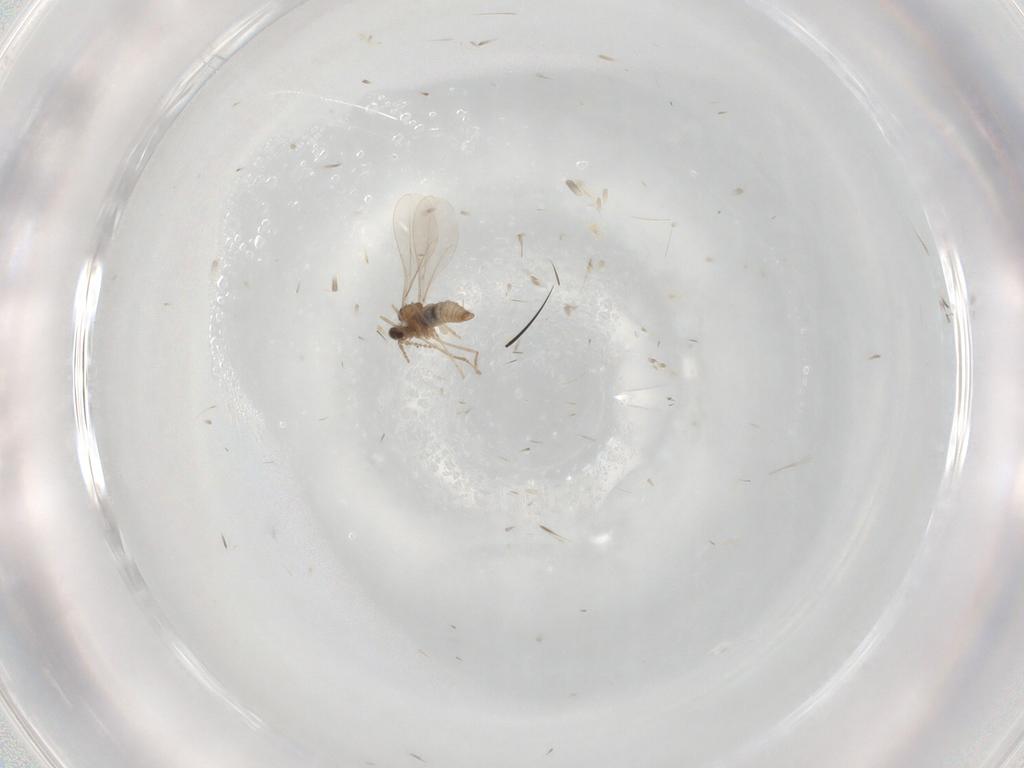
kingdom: Animalia
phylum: Arthropoda
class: Insecta
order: Diptera
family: Cecidomyiidae
